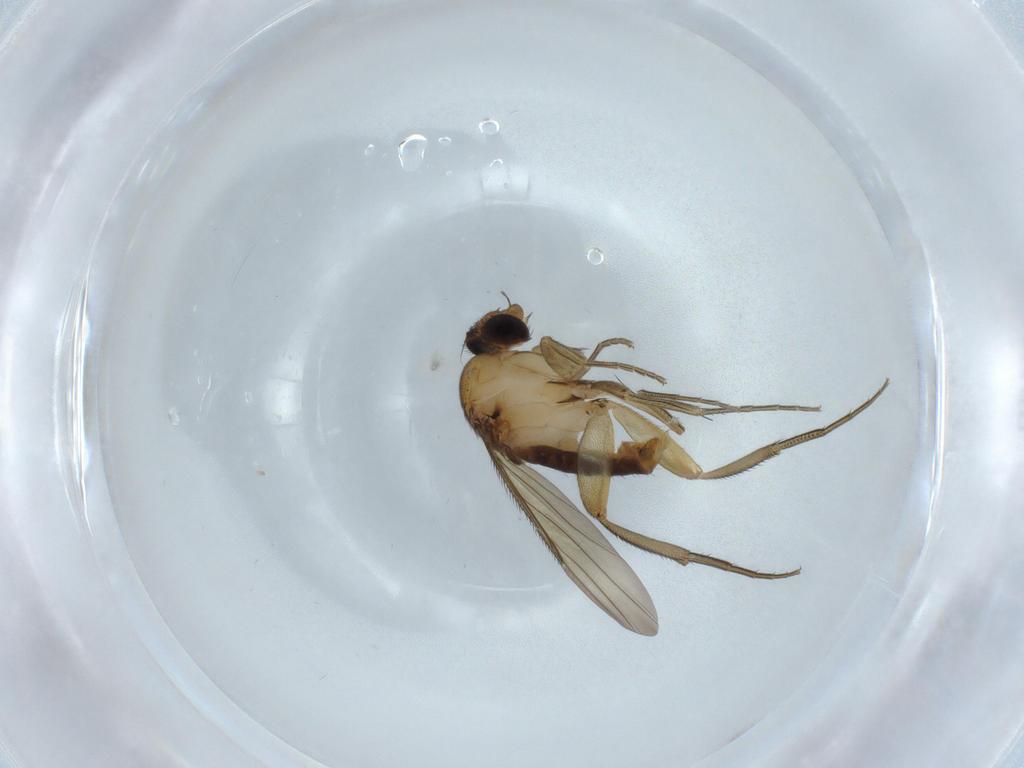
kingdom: Animalia
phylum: Arthropoda
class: Insecta
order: Diptera
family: Phoridae
